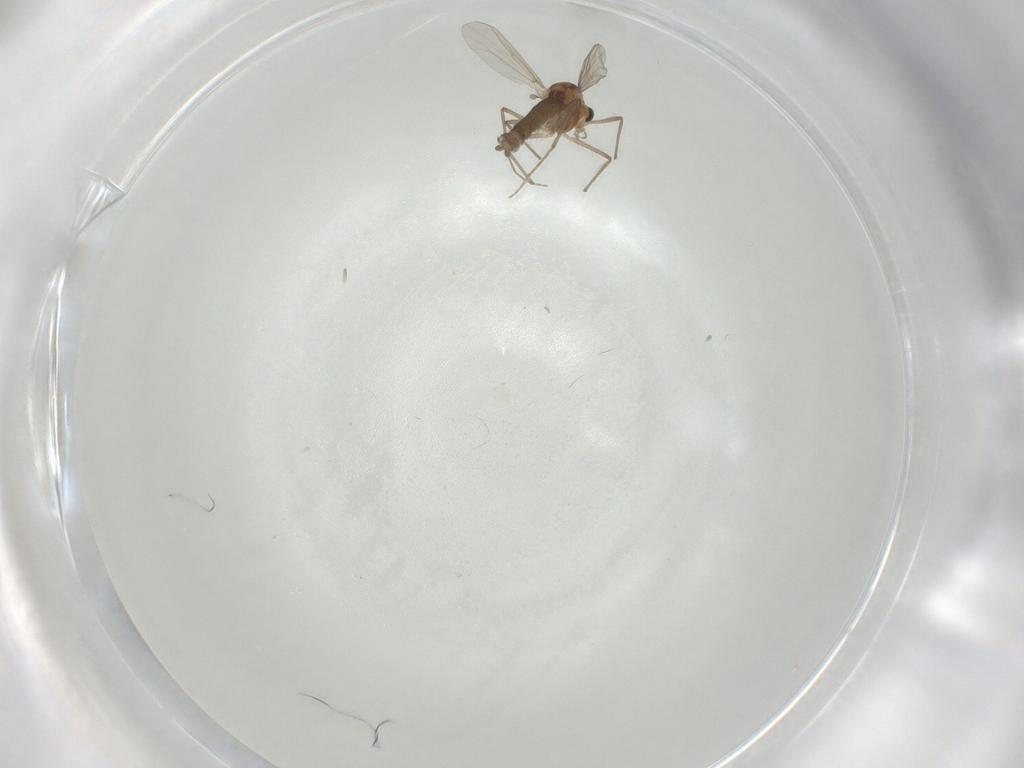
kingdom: Animalia
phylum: Arthropoda
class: Insecta
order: Diptera
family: Chironomidae
